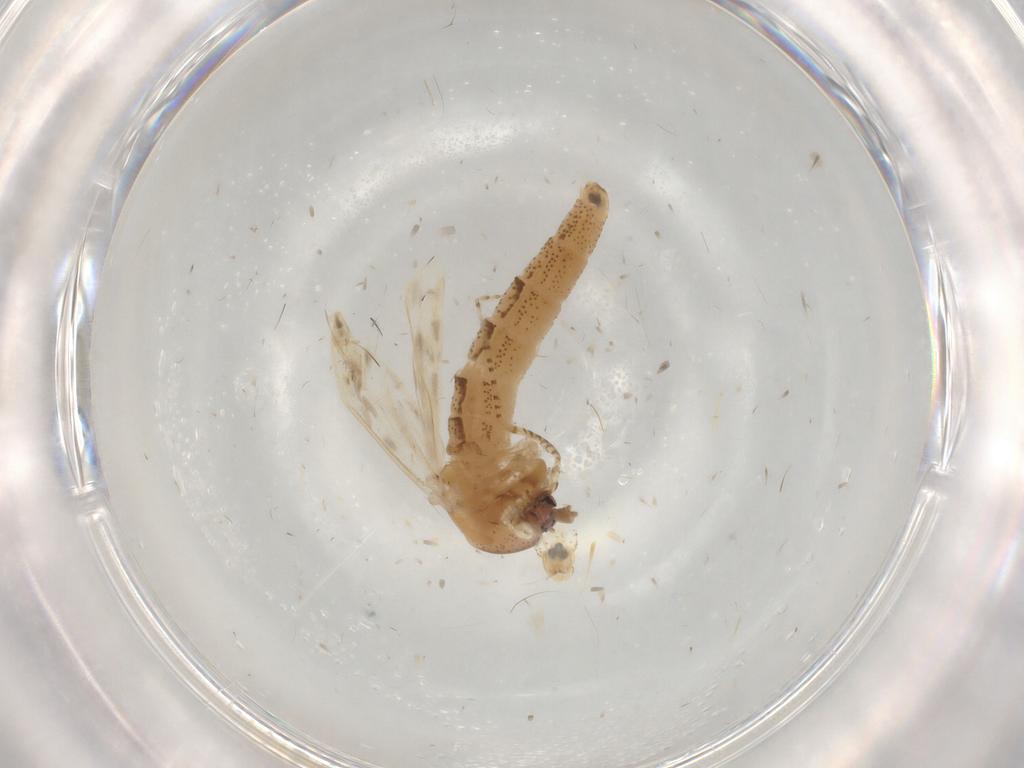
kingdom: Animalia
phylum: Arthropoda
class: Insecta
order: Diptera
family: Chaoboridae
